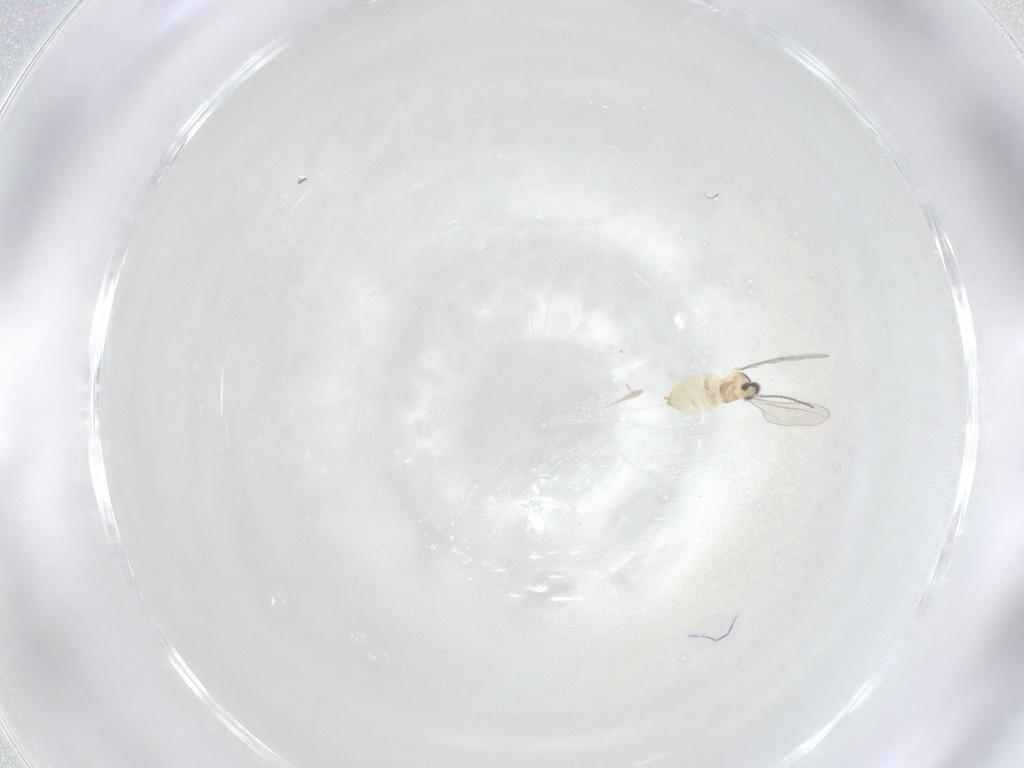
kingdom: Animalia
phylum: Arthropoda
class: Insecta
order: Diptera
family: Cecidomyiidae
